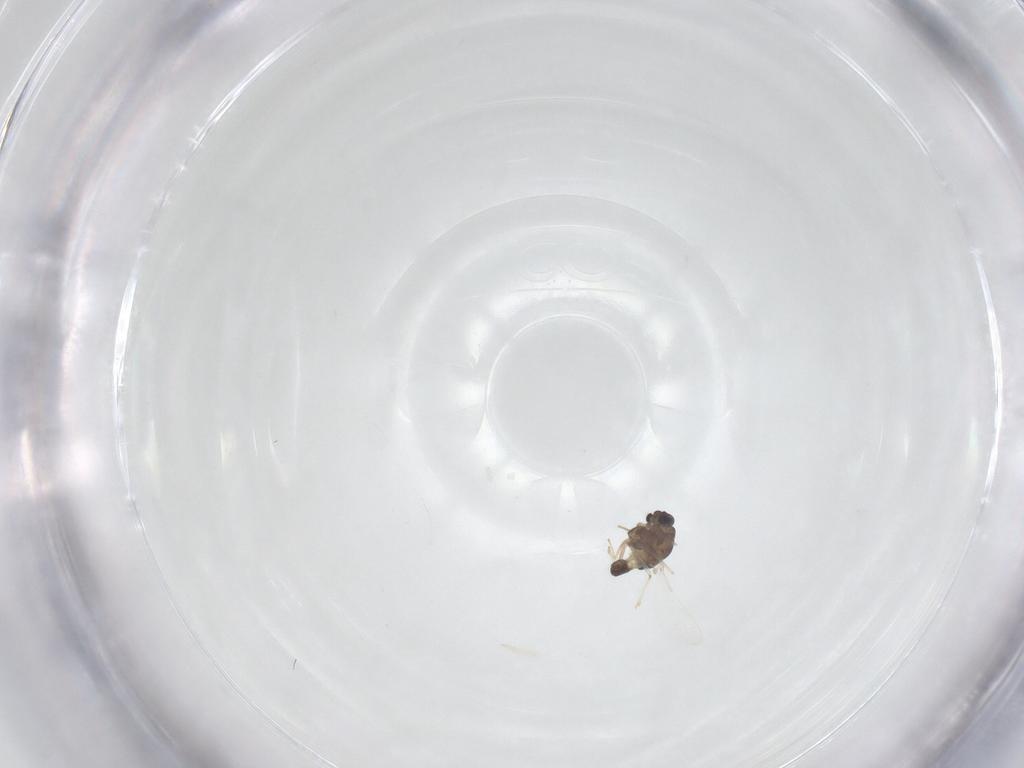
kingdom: Animalia
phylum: Arthropoda
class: Insecta
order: Diptera
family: Chironomidae
